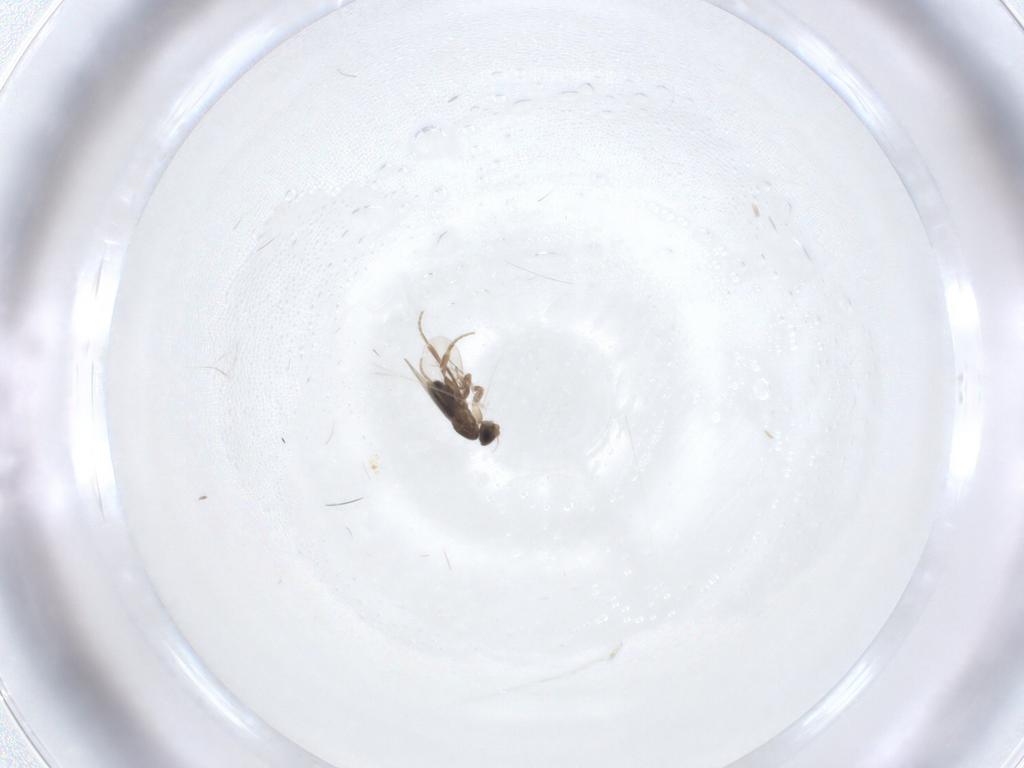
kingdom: Animalia
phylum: Arthropoda
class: Insecta
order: Diptera
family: Phoridae
